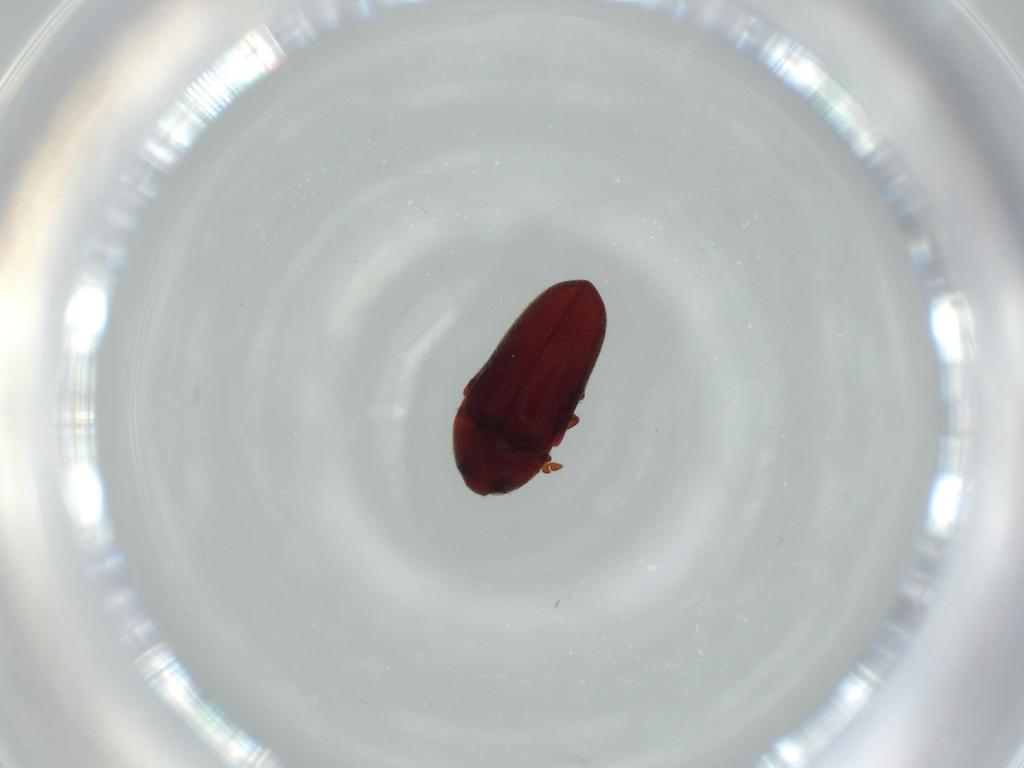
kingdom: Animalia
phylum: Arthropoda
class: Insecta
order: Coleoptera
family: Throscidae
